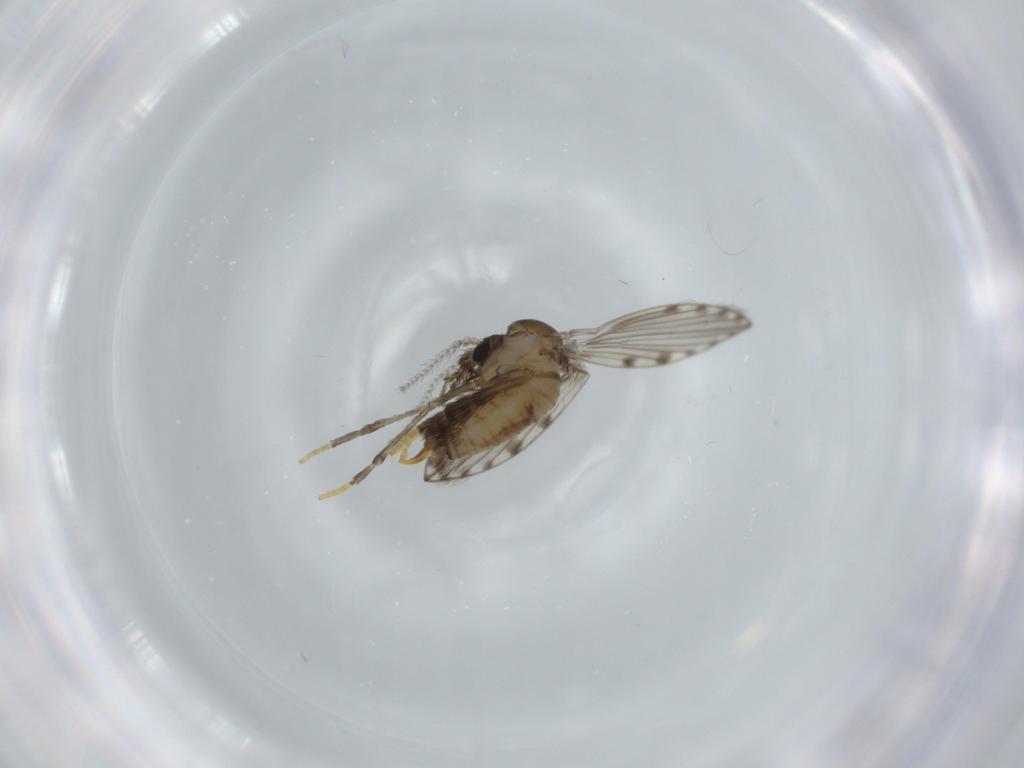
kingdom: Animalia
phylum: Arthropoda
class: Insecta
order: Diptera
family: Psychodidae
